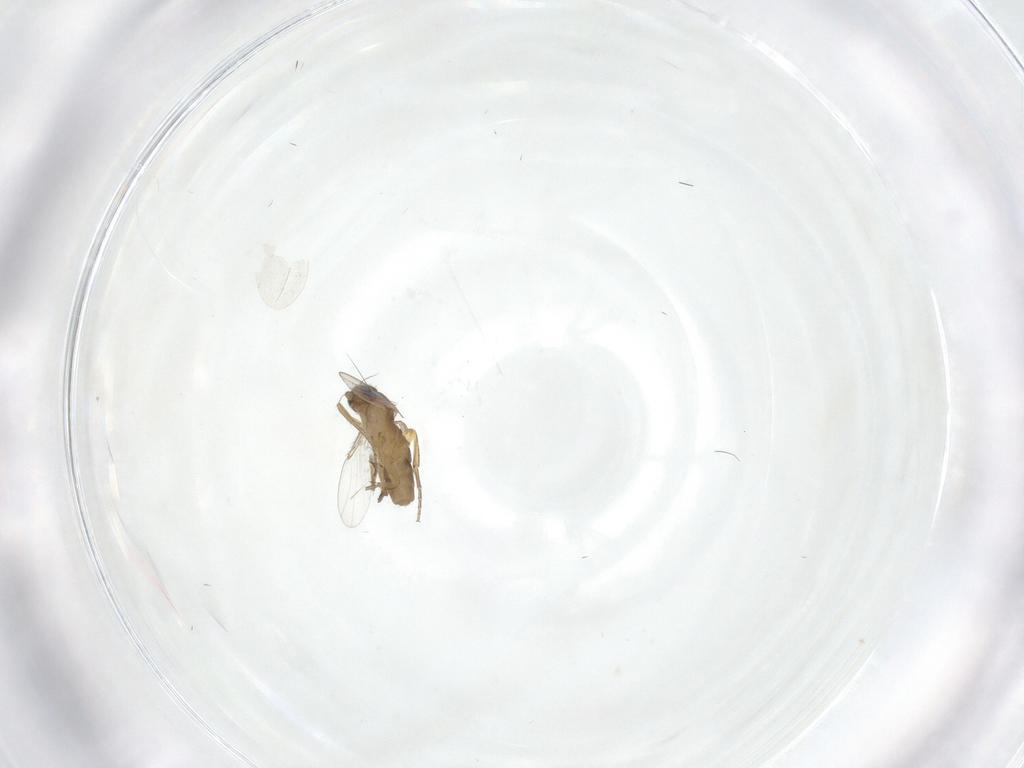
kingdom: Animalia
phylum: Arthropoda
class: Insecta
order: Diptera
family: Phoridae
